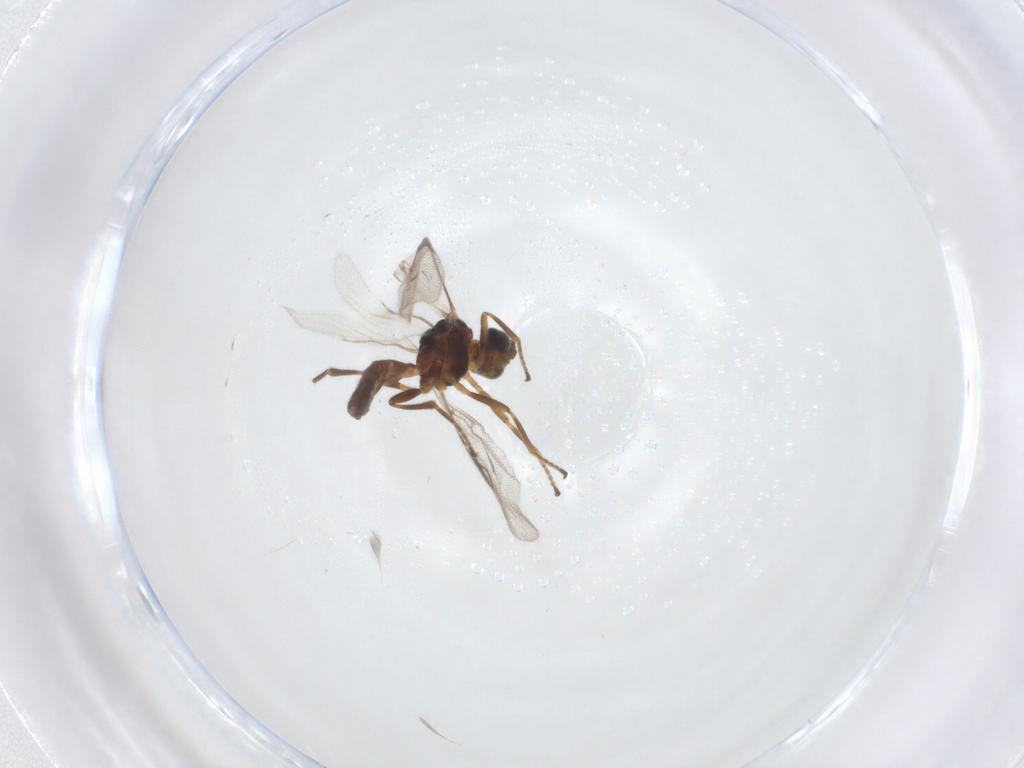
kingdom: Animalia
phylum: Arthropoda
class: Insecta
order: Hymenoptera
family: Braconidae
